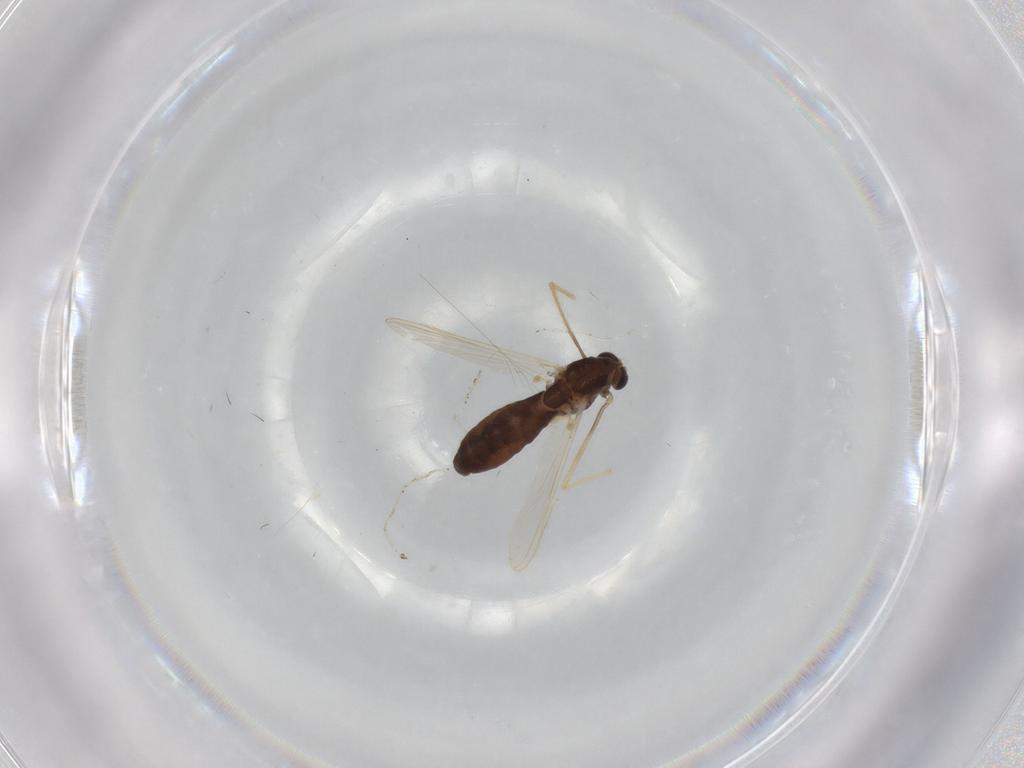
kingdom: Animalia
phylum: Arthropoda
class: Insecta
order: Diptera
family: Chironomidae
